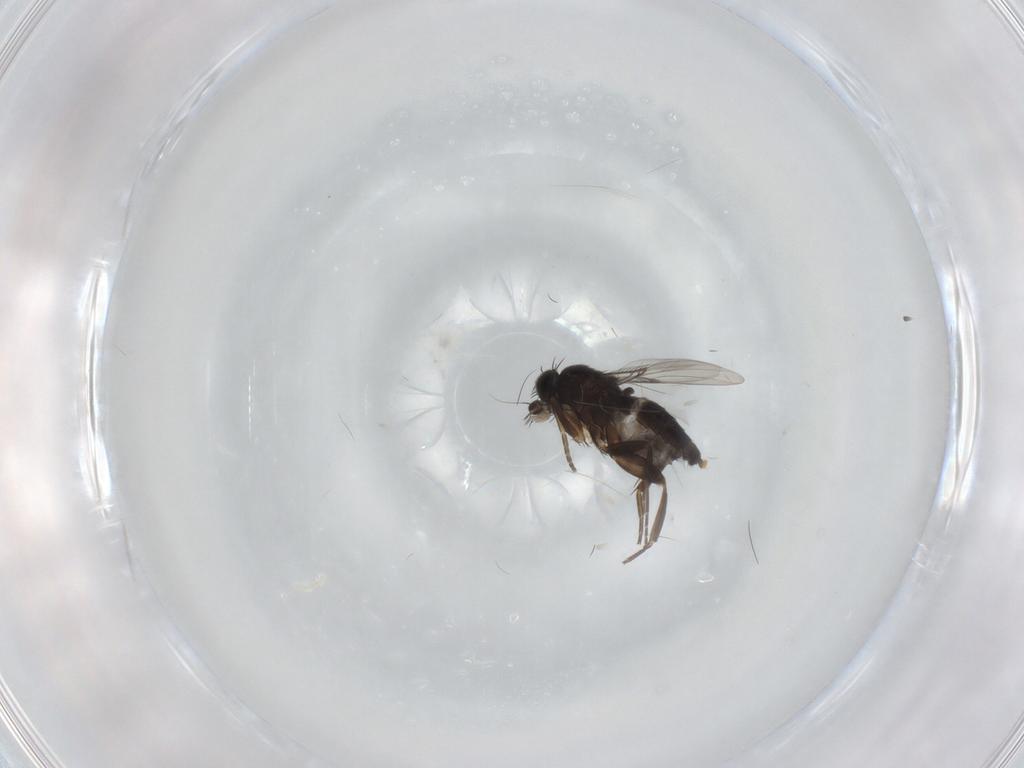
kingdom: Animalia
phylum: Arthropoda
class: Insecta
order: Diptera
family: Phoridae
